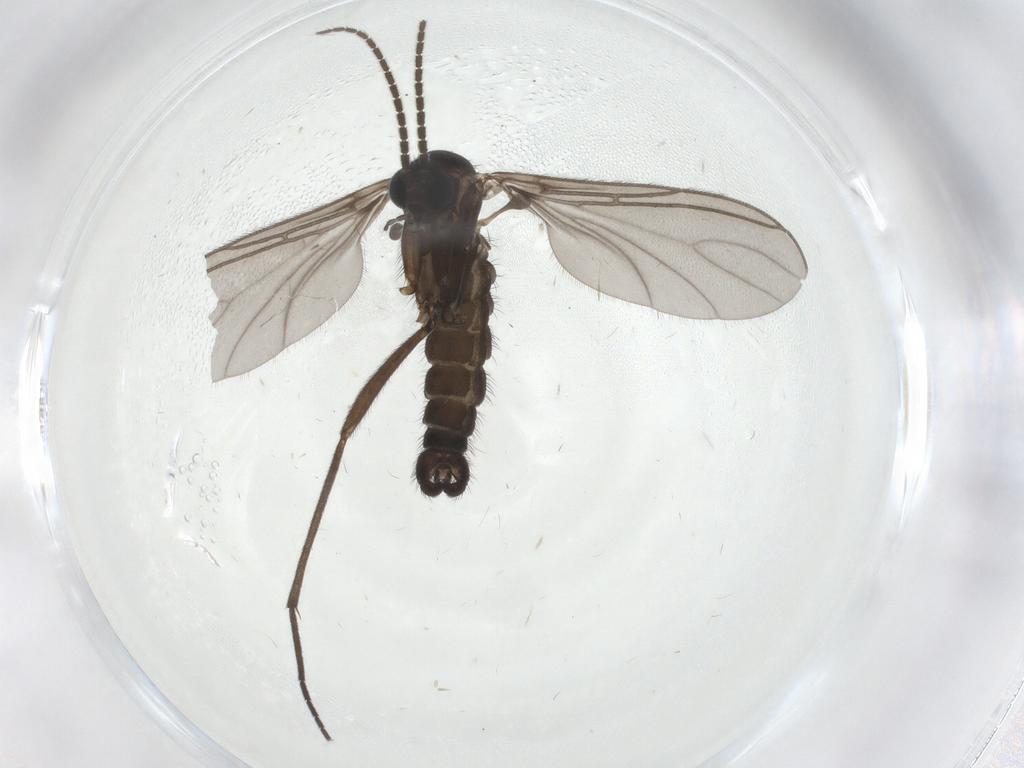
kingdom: Animalia
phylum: Arthropoda
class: Insecta
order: Diptera
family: Sciaridae
